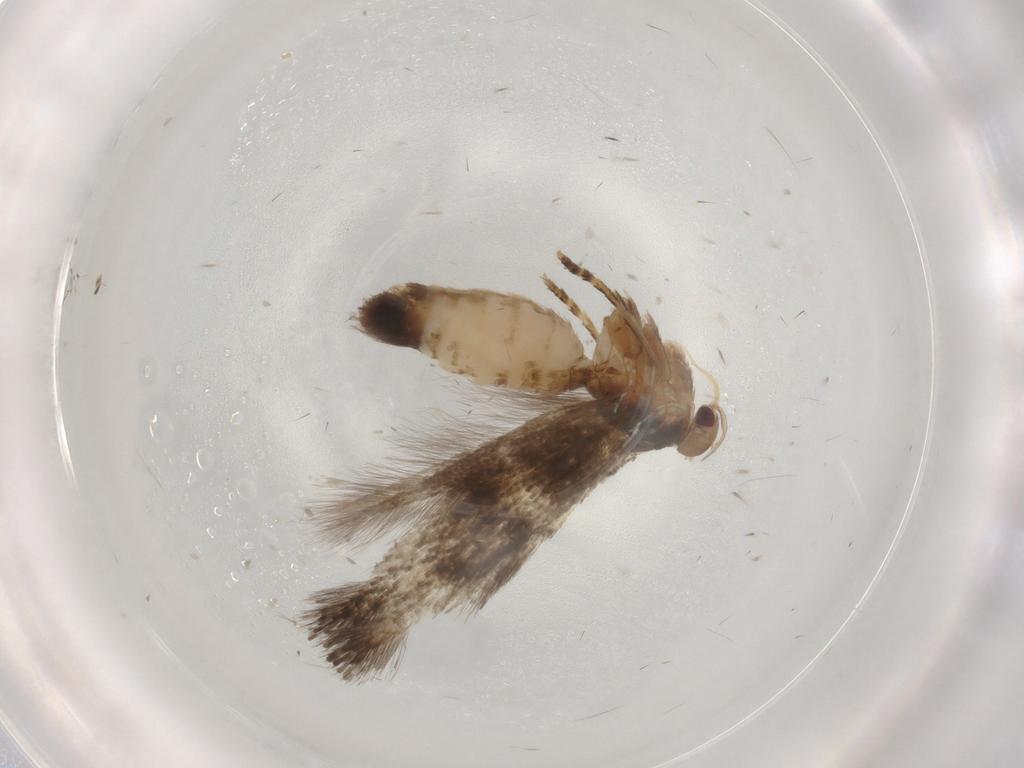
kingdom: Animalia
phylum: Arthropoda
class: Insecta
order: Lepidoptera
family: Elachistidae
